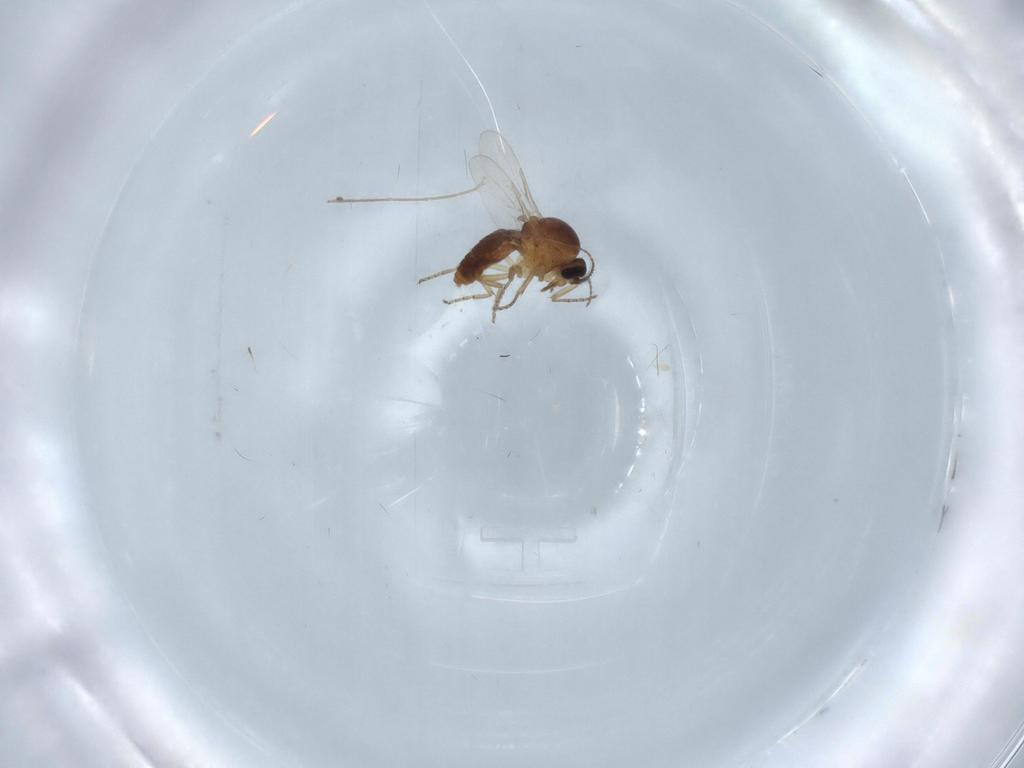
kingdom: Animalia
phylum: Arthropoda
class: Insecta
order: Diptera
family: Ceratopogonidae
